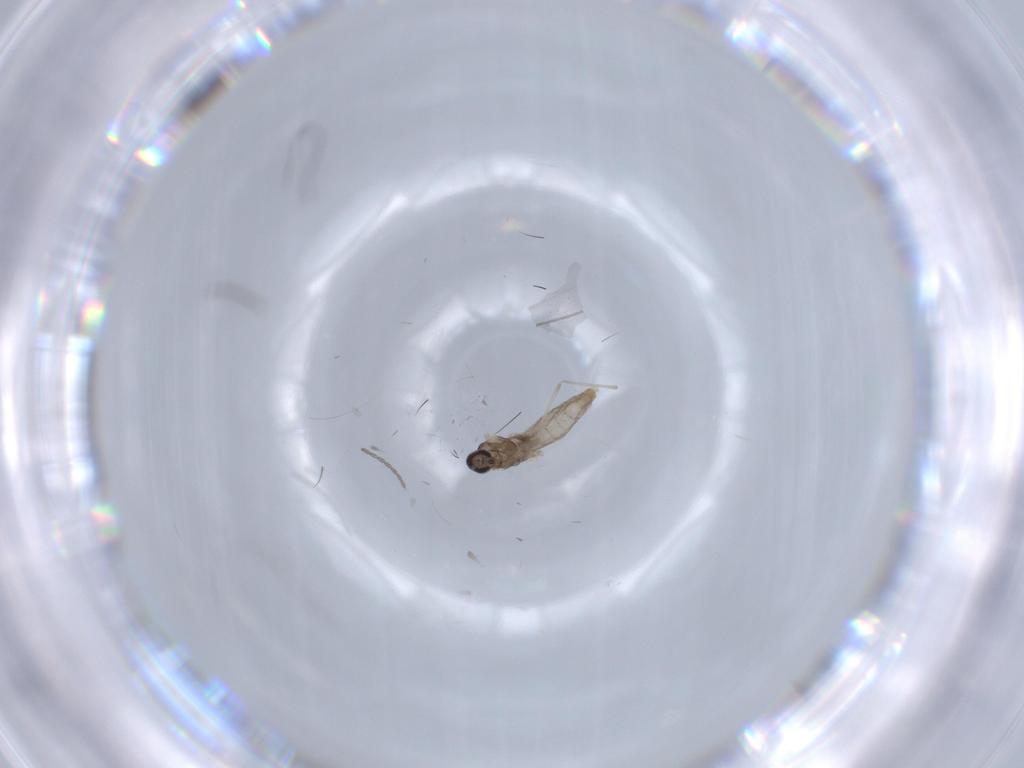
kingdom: Animalia
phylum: Arthropoda
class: Insecta
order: Diptera
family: Cecidomyiidae
